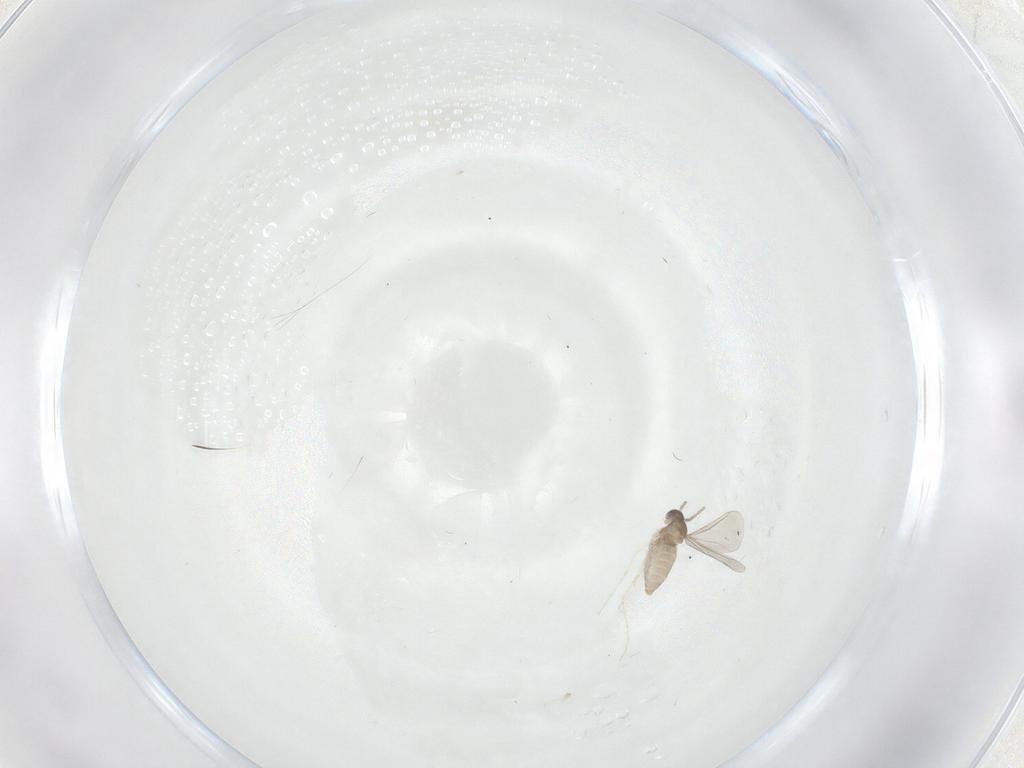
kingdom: Animalia
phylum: Arthropoda
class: Insecta
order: Diptera
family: Cecidomyiidae
